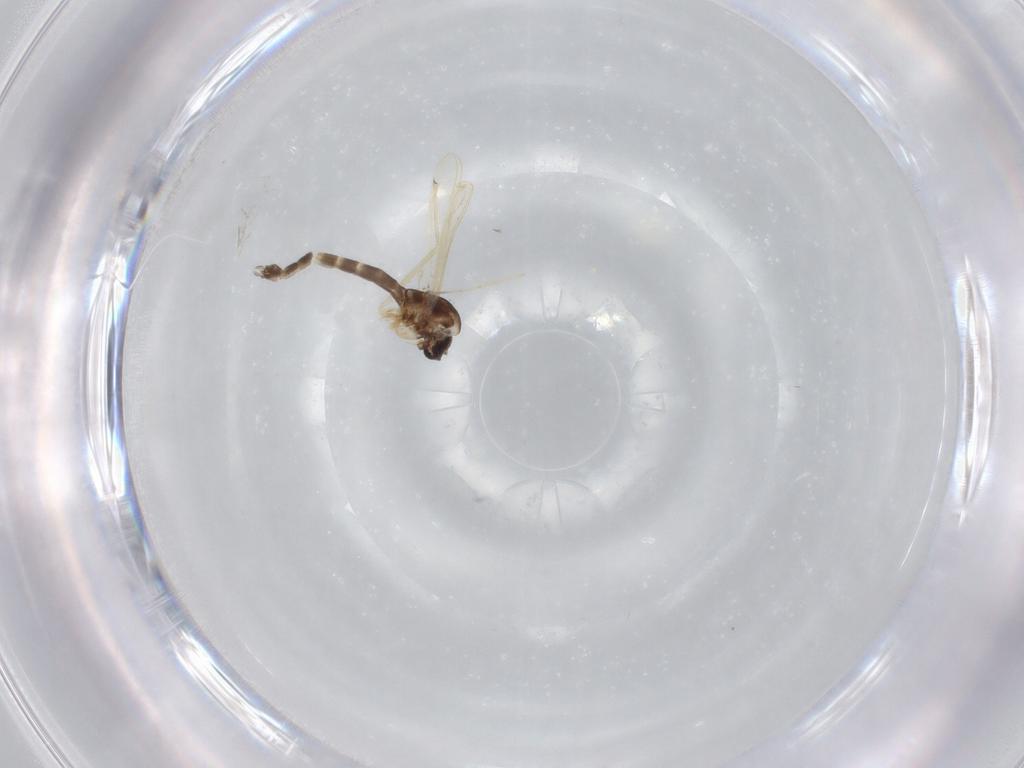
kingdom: Animalia
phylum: Arthropoda
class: Insecta
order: Diptera
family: Chironomidae
